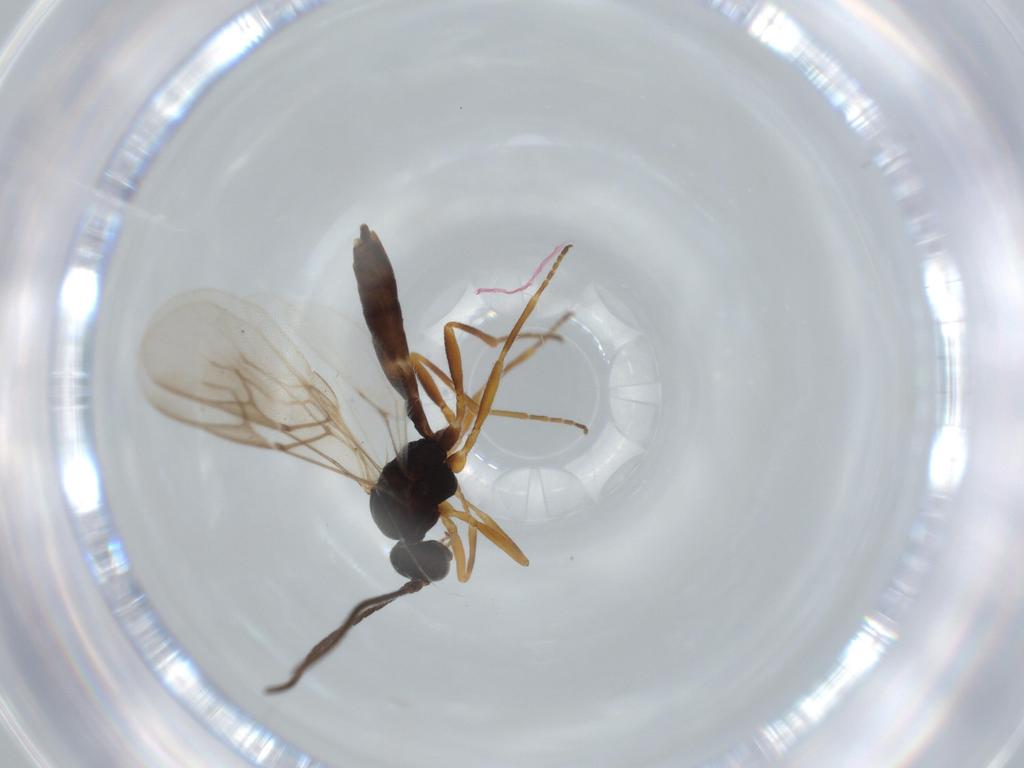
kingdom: Animalia
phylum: Arthropoda
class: Insecta
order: Hymenoptera
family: Braconidae
